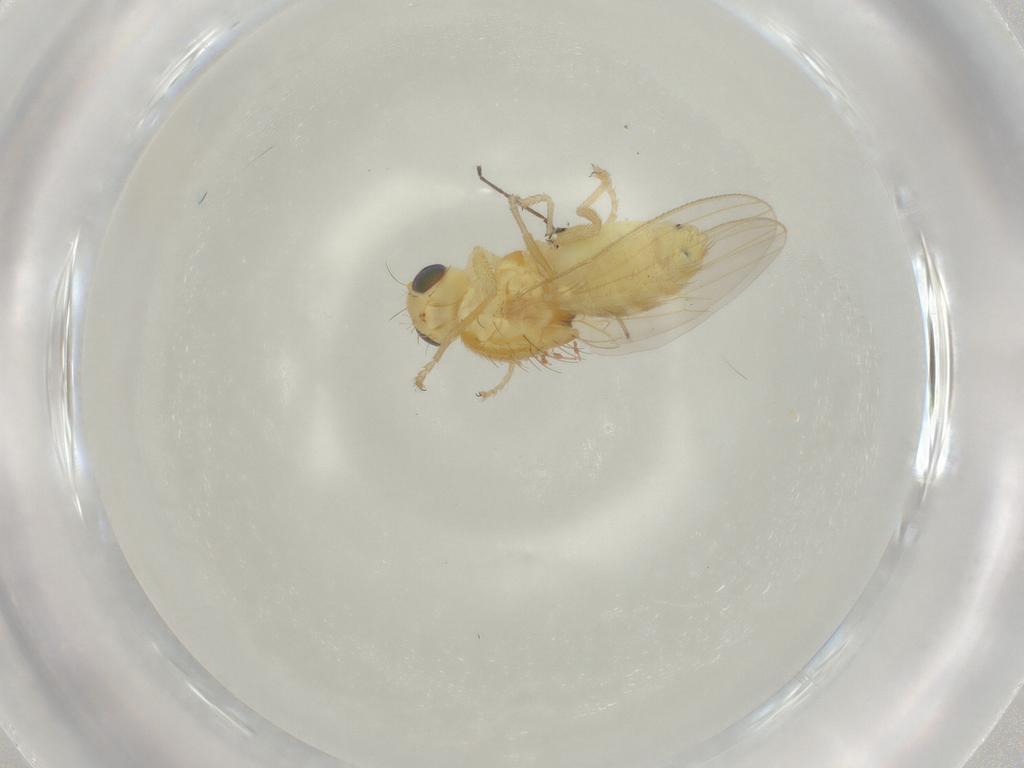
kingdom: Animalia
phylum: Arthropoda
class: Insecta
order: Diptera
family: Chyromyidae
